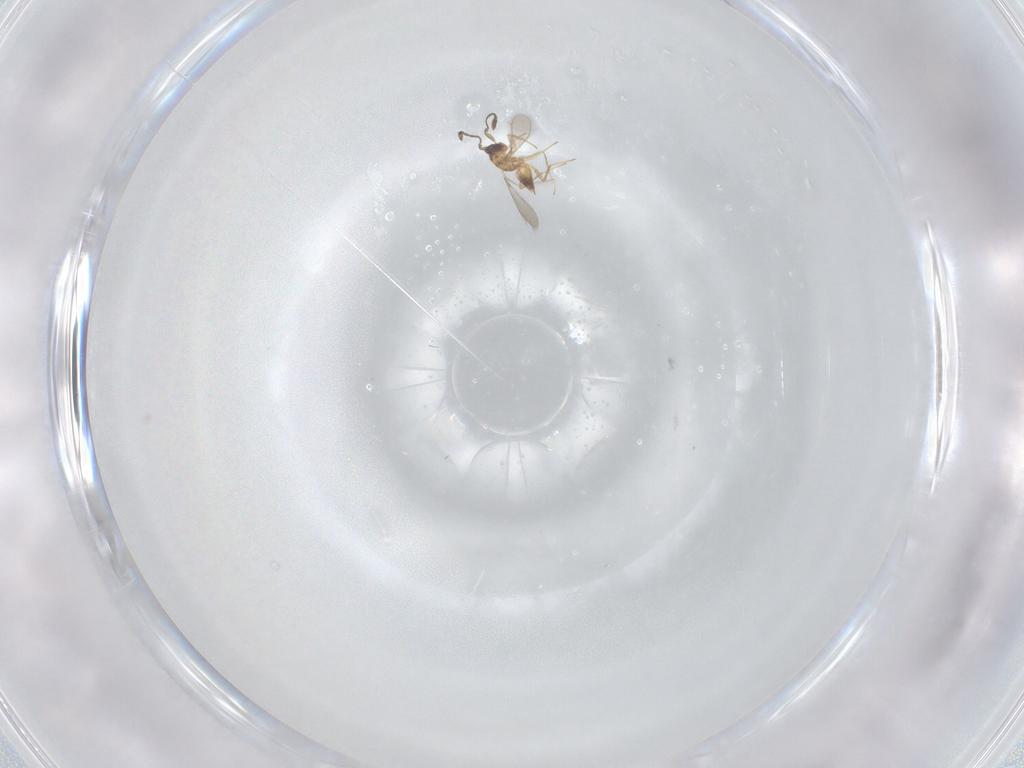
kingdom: Animalia
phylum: Arthropoda
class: Insecta
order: Hymenoptera
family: Mymaridae
